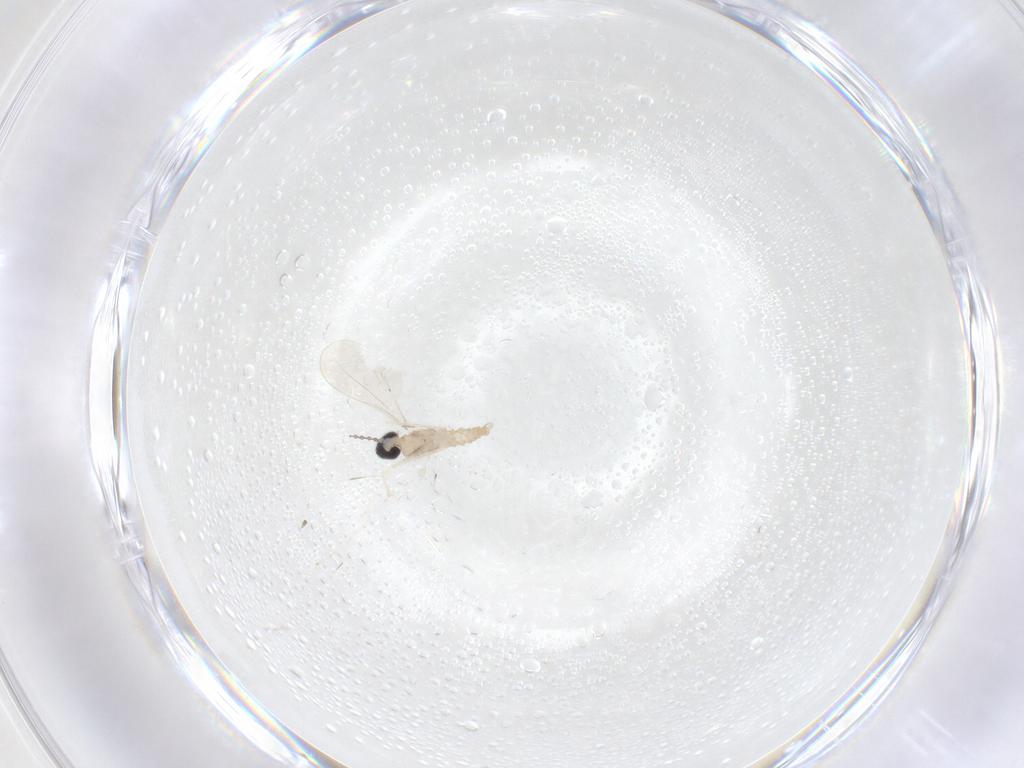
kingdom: Animalia
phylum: Arthropoda
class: Insecta
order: Diptera
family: Cecidomyiidae
